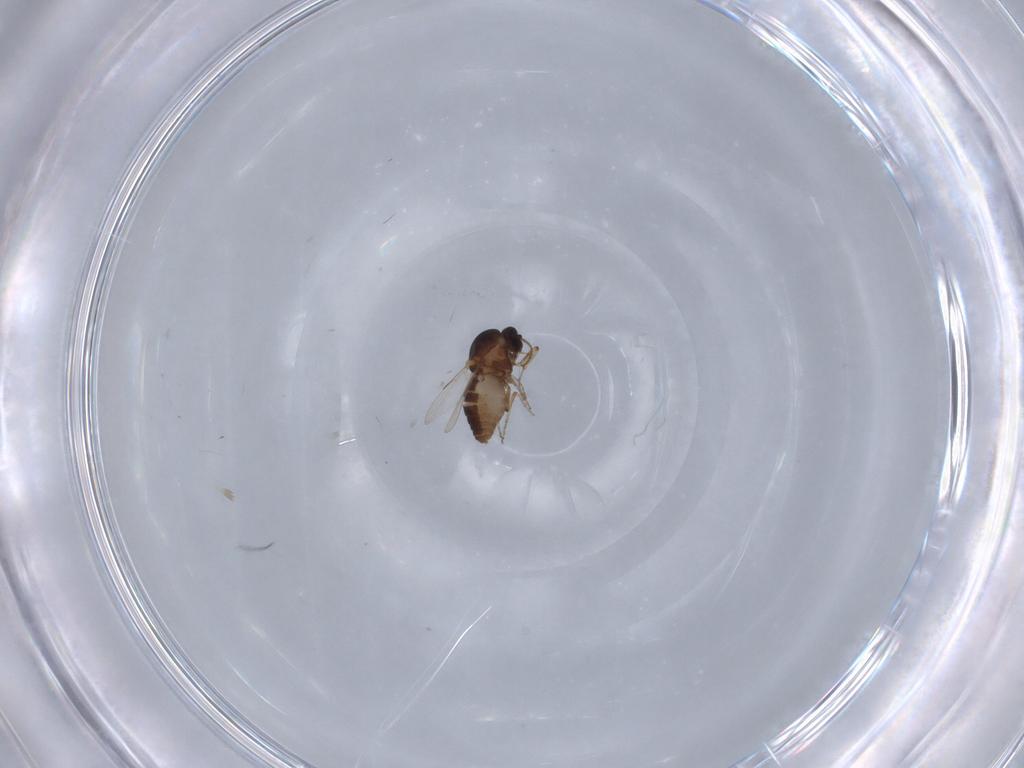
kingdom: Animalia
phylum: Arthropoda
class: Insecta
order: Diptera
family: Ceratopogonidae
